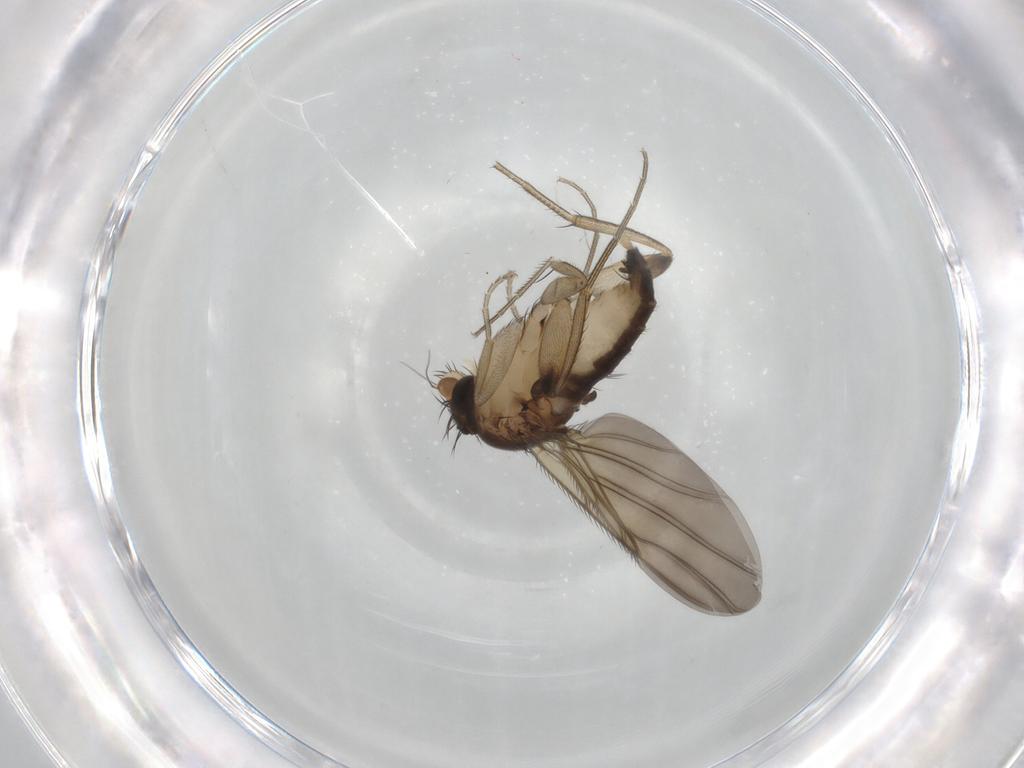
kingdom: Animalia
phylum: Arthropoda
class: Insecta
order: Diptera
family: Phoridae
